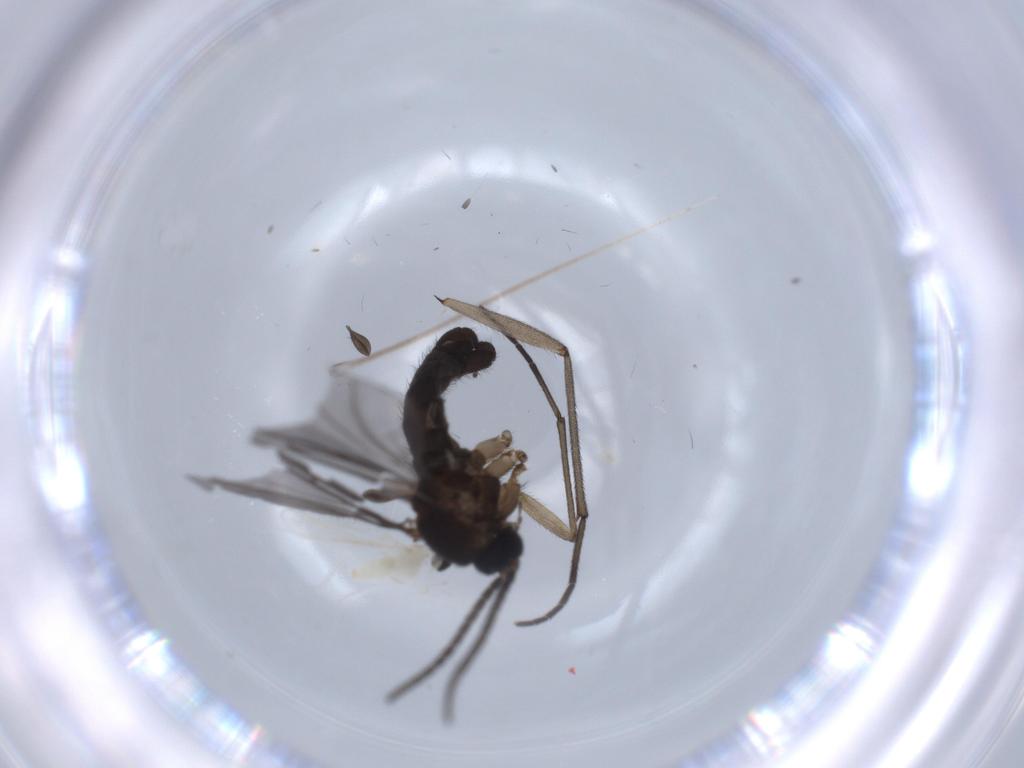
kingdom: Animalia
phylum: Arthropoda
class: Insecta
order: Diptera
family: Sciaridae
